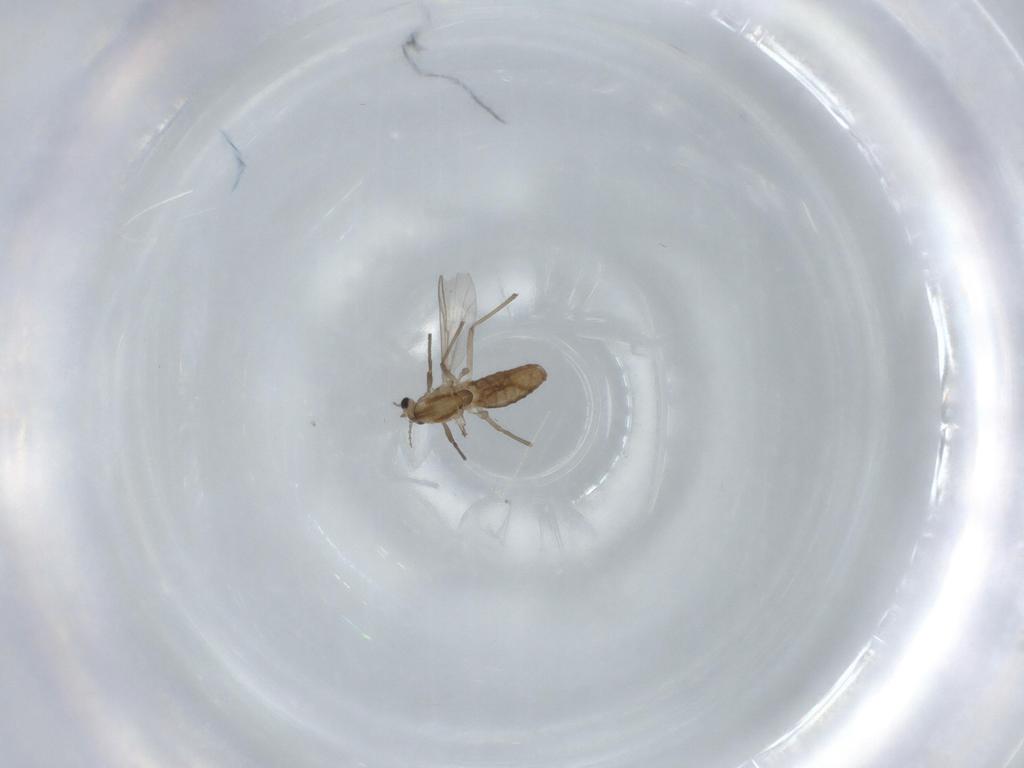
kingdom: Animalia
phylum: Arthropoda
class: Insecta
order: Diptera
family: Chironomidae
